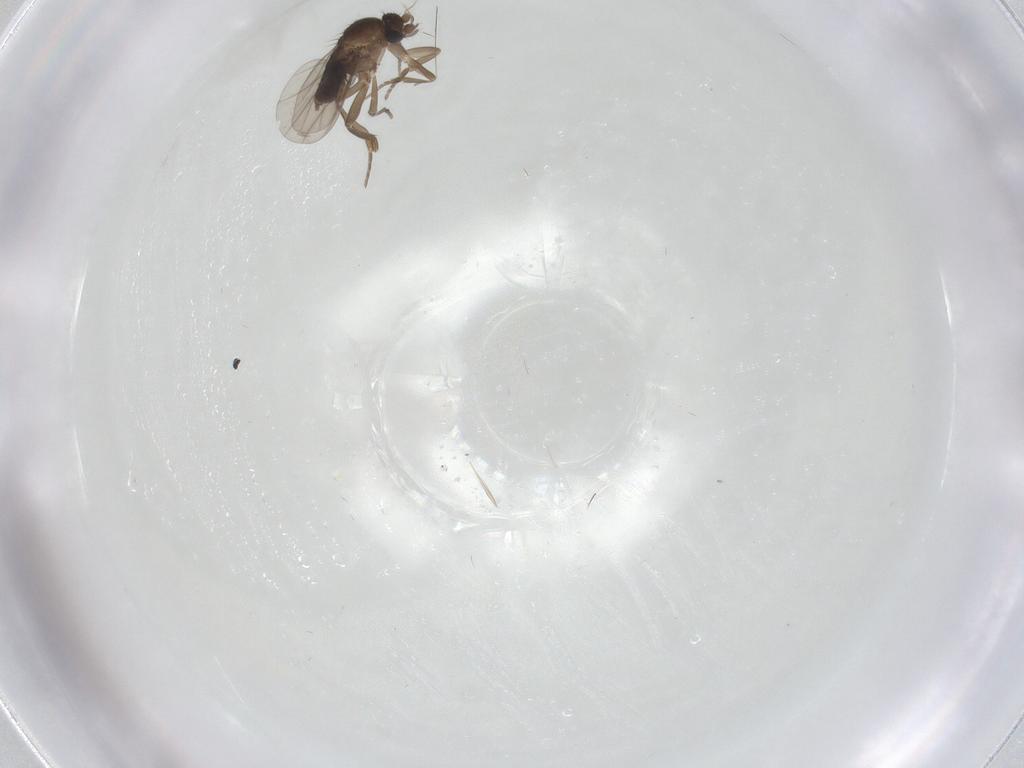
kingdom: Animalia
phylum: Arthropoda
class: Insecta
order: Diptera
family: Phoridae
